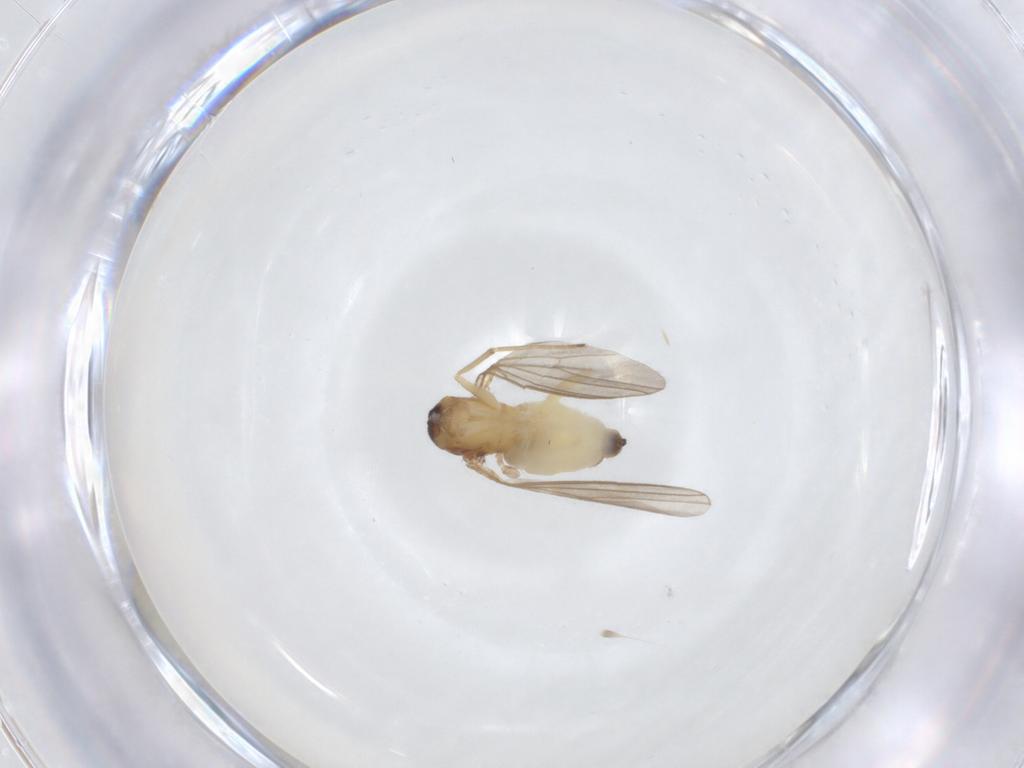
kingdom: Animalia
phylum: Arthropoda
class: Insecta
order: Diptera
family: Dolichopodidae
